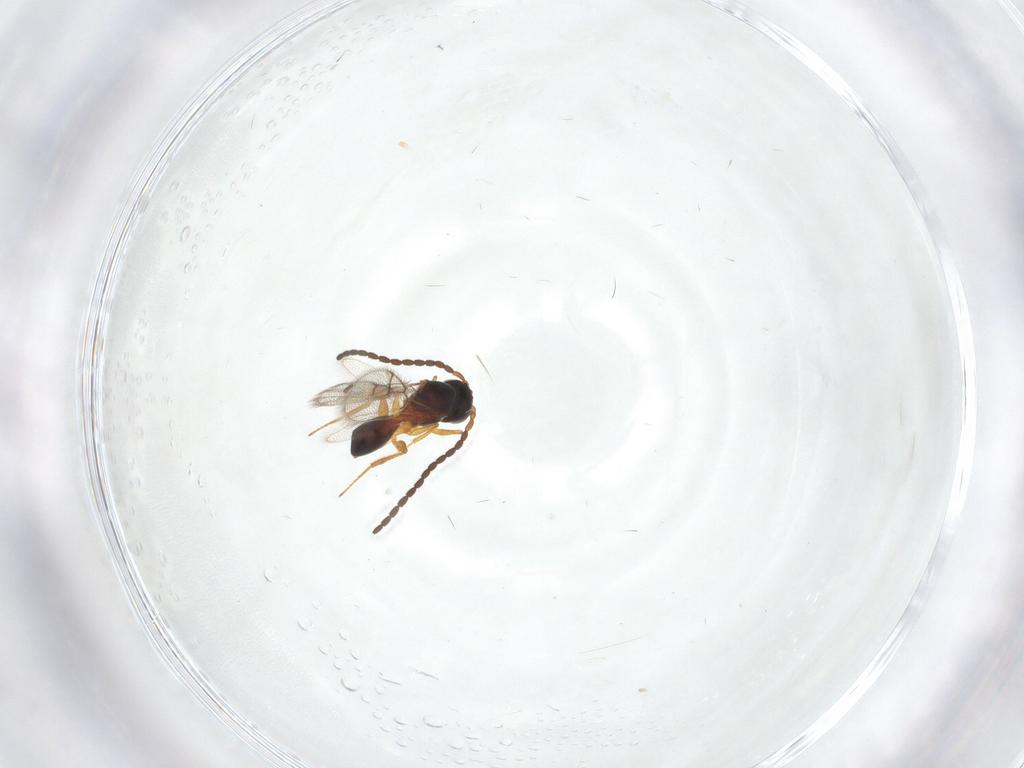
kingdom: Animalia
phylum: Arthropoda
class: Insecta
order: Hymenoptera
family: Figitidae
